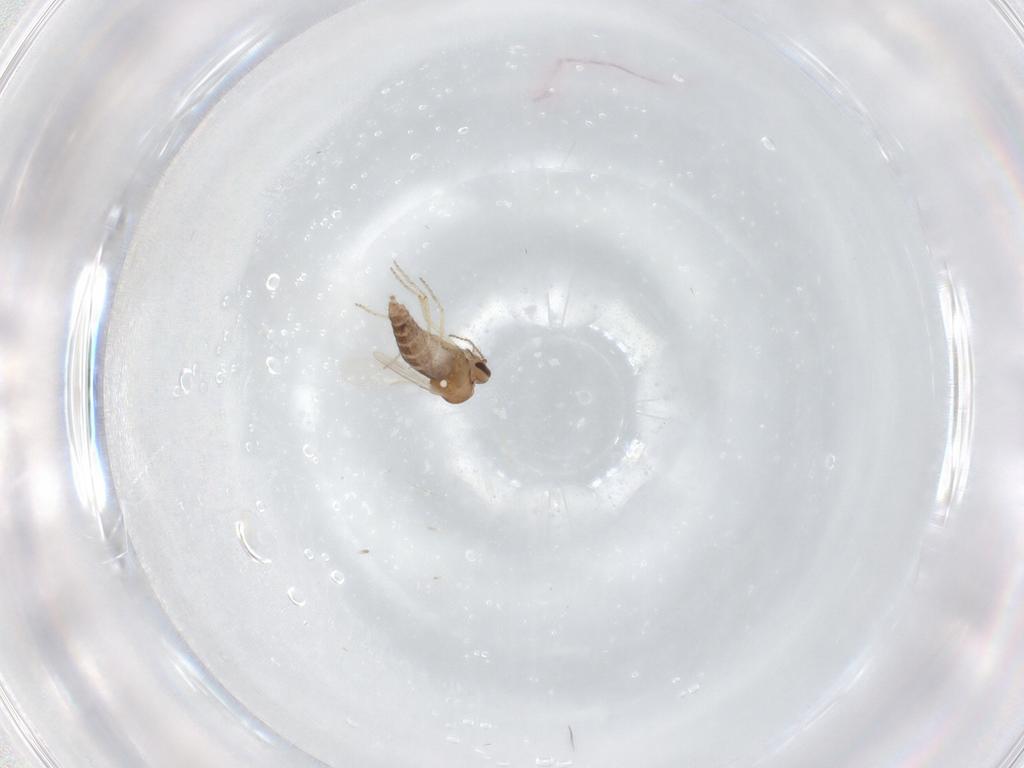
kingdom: Animalia
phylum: Arthropoda
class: Insecta
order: Diptera
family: Ceratopogonidae
